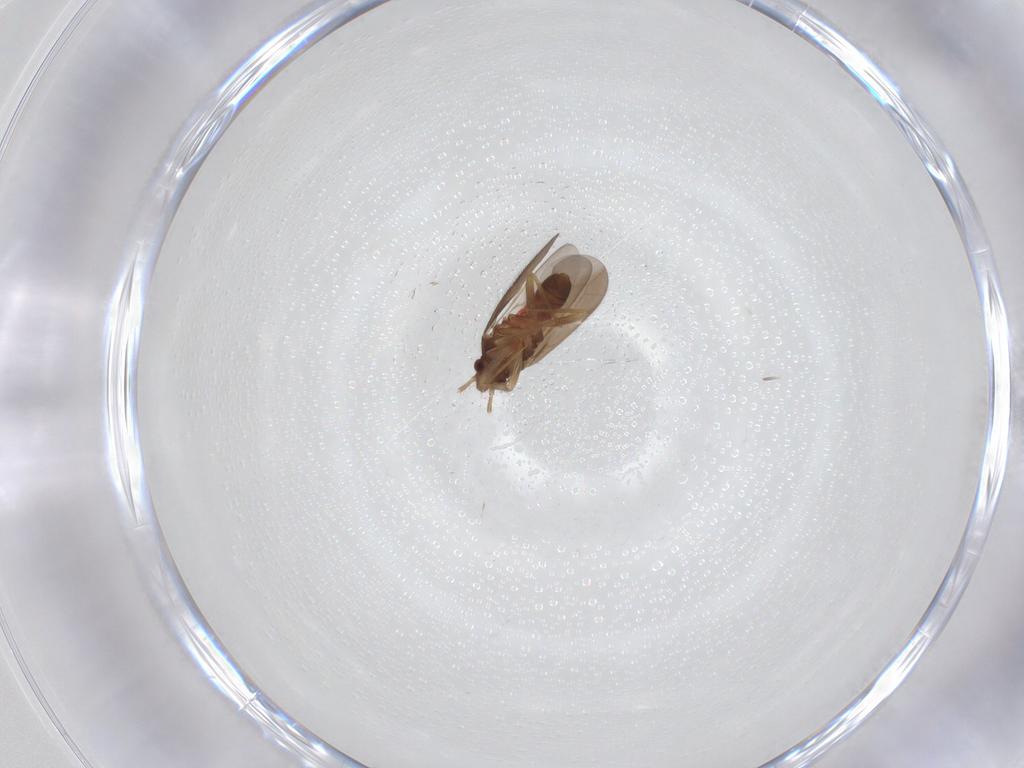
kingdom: Animalia
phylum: Arthropoda
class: Insecta
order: Hemiptera
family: Ceratocombidae
